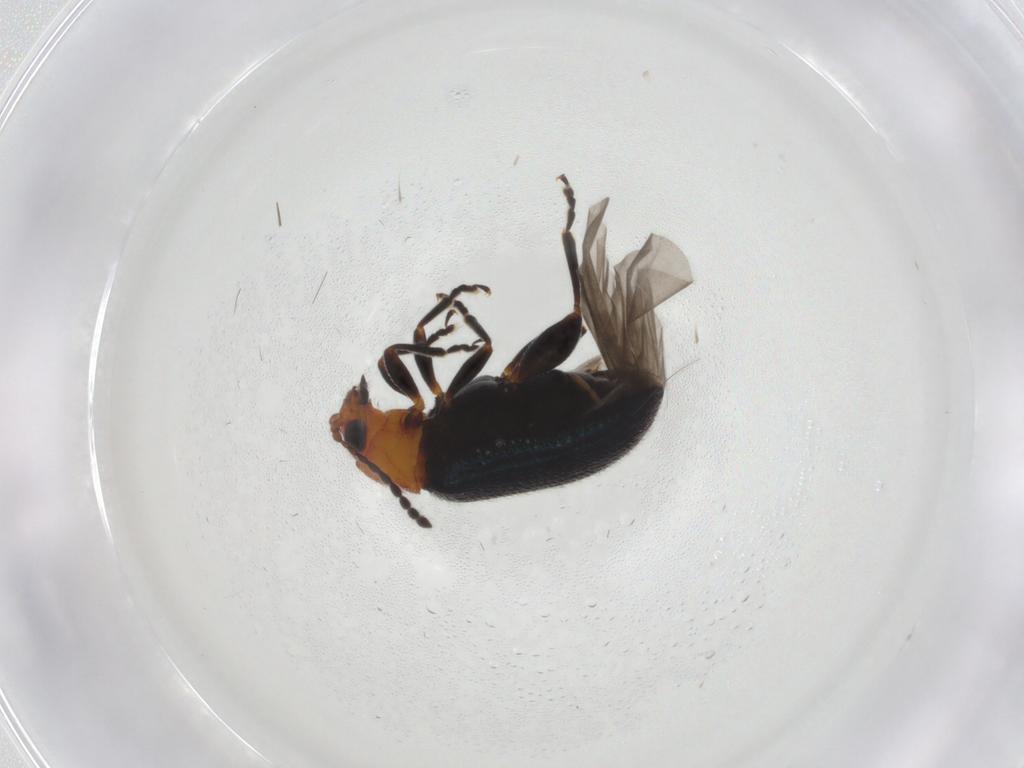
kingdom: Animalia
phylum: Arthropoda
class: Insecta
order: Coleoptera
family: Chrysomelidae
